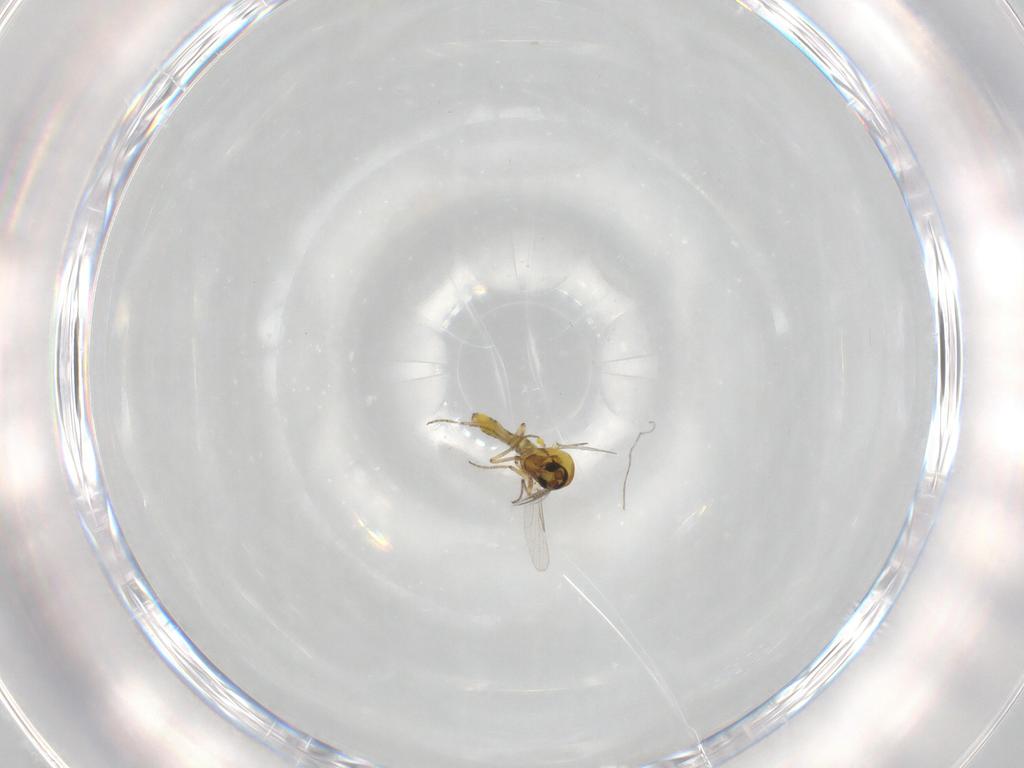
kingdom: Animalia
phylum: Arthropoda
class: Insecta
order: Diptera
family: Ceratopogonidae
